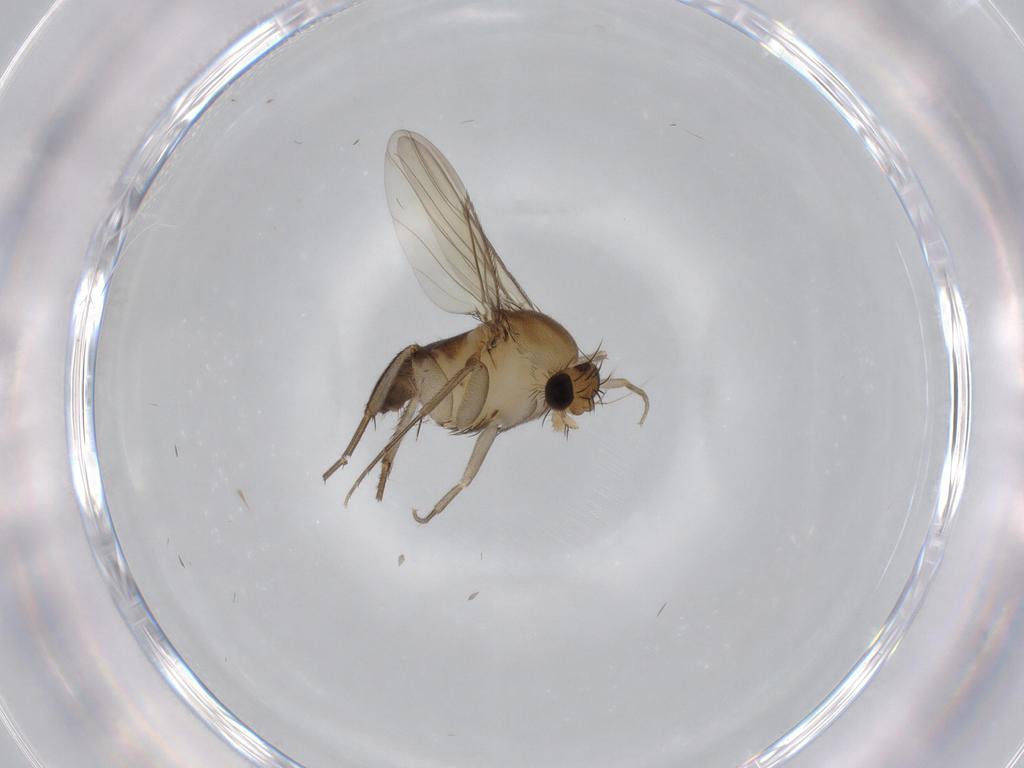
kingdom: Animalia
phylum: Arthropoda
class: Insecta
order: Diptera
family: Phoridae
